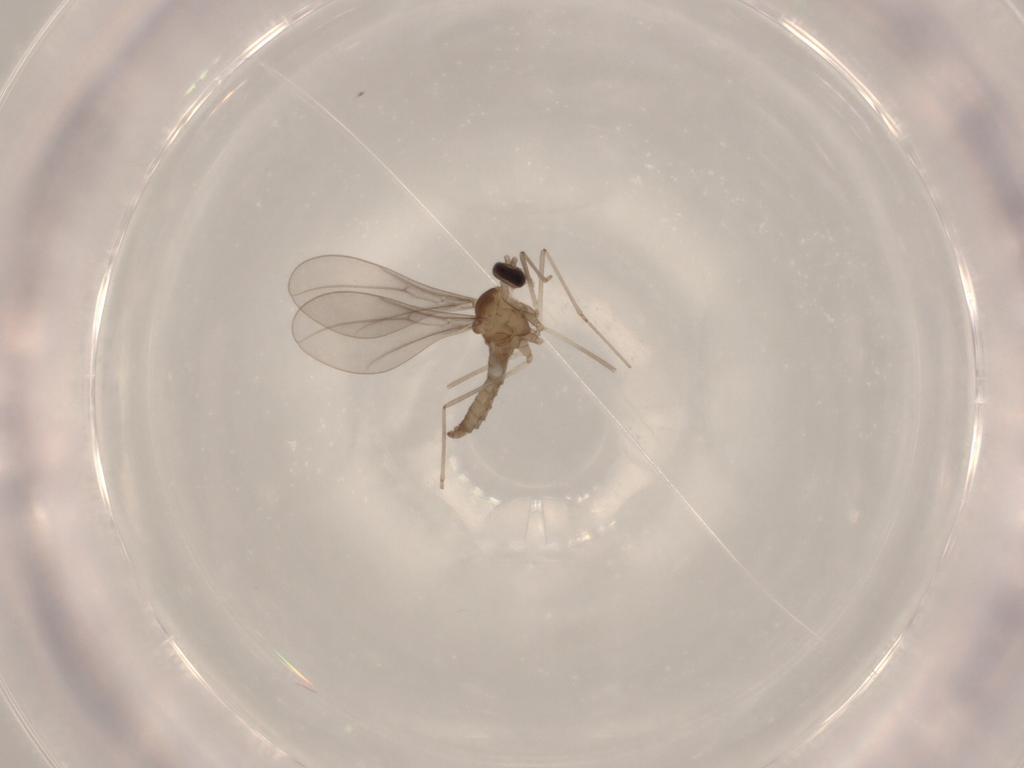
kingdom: Animalia
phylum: Arthropoda
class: Insecta
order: Diptera
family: Cecidomyiidae
